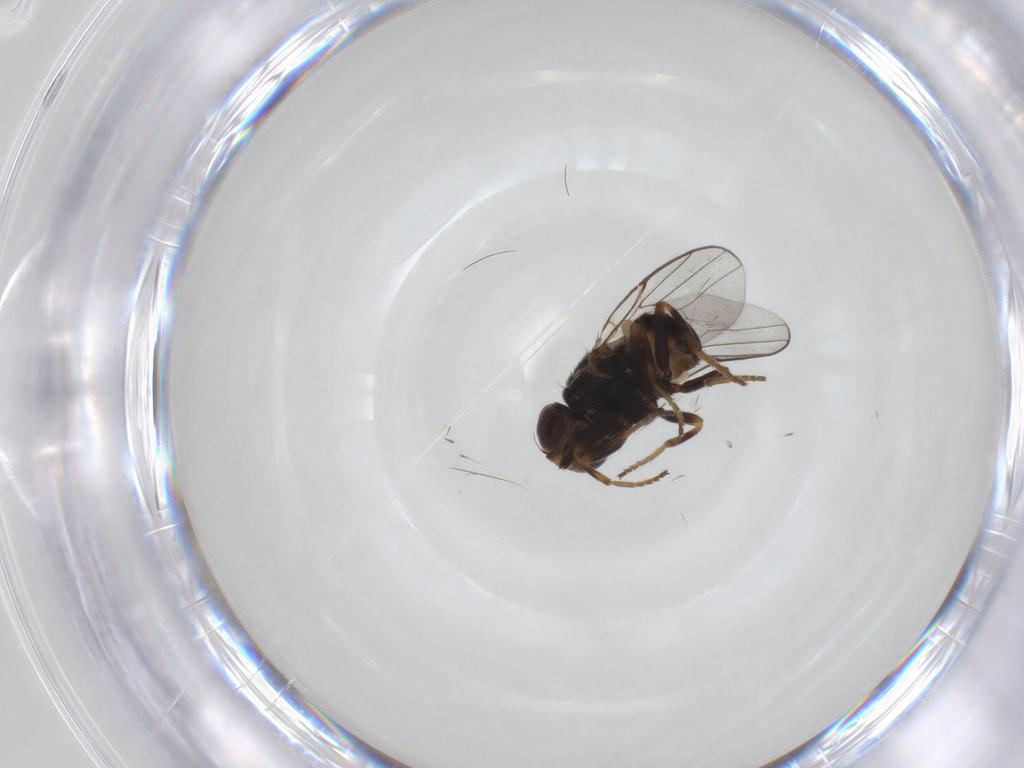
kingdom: Animalia
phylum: Arthropoda
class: Insecta
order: Diptera
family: Chloropidae
